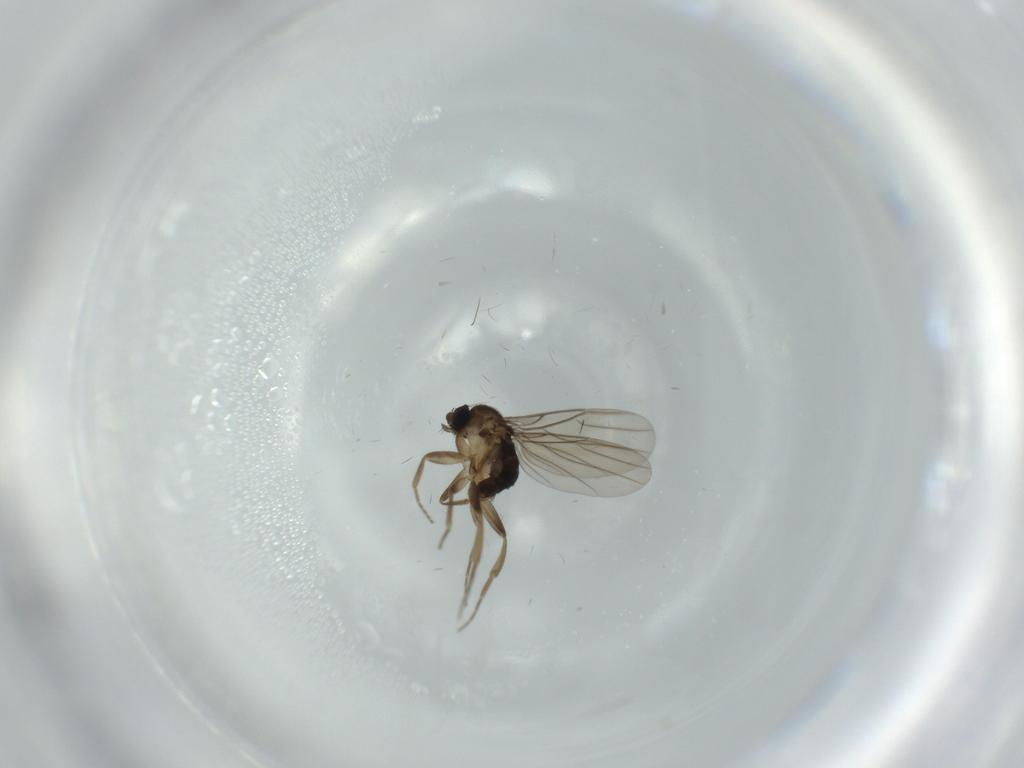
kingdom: Animalia
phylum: Arthropoda
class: Insecta
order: Diptera
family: Phoridae
